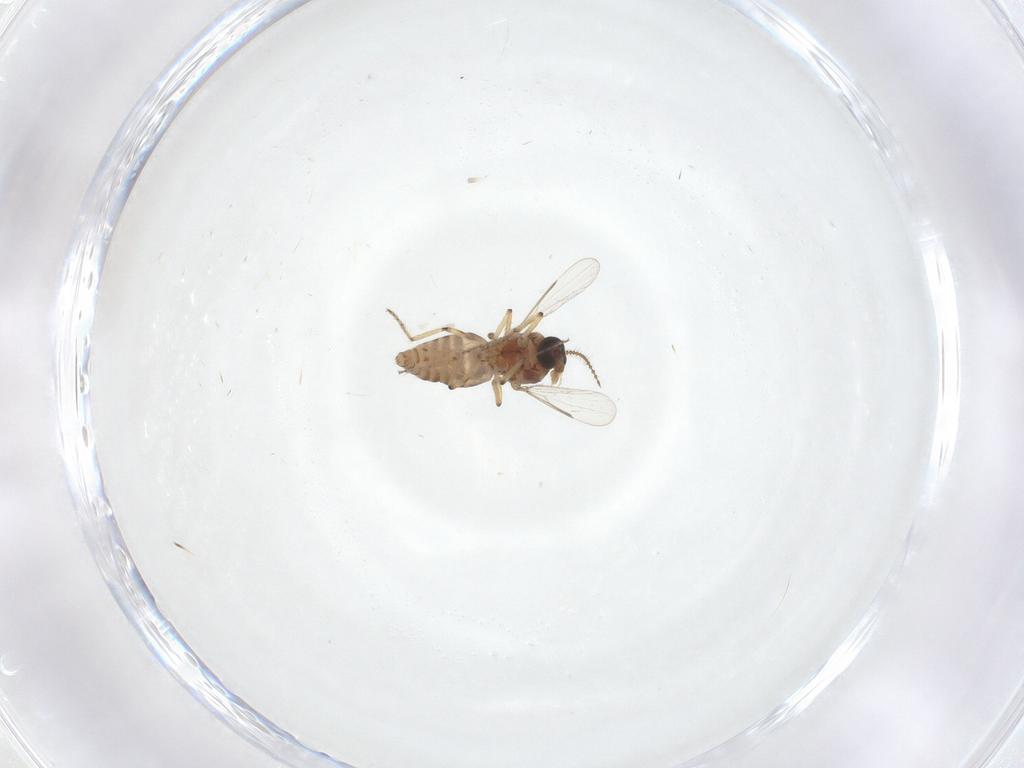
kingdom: Animalia
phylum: Arthropoda
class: Insecta
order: Diptera
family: Ceratopogonidae
